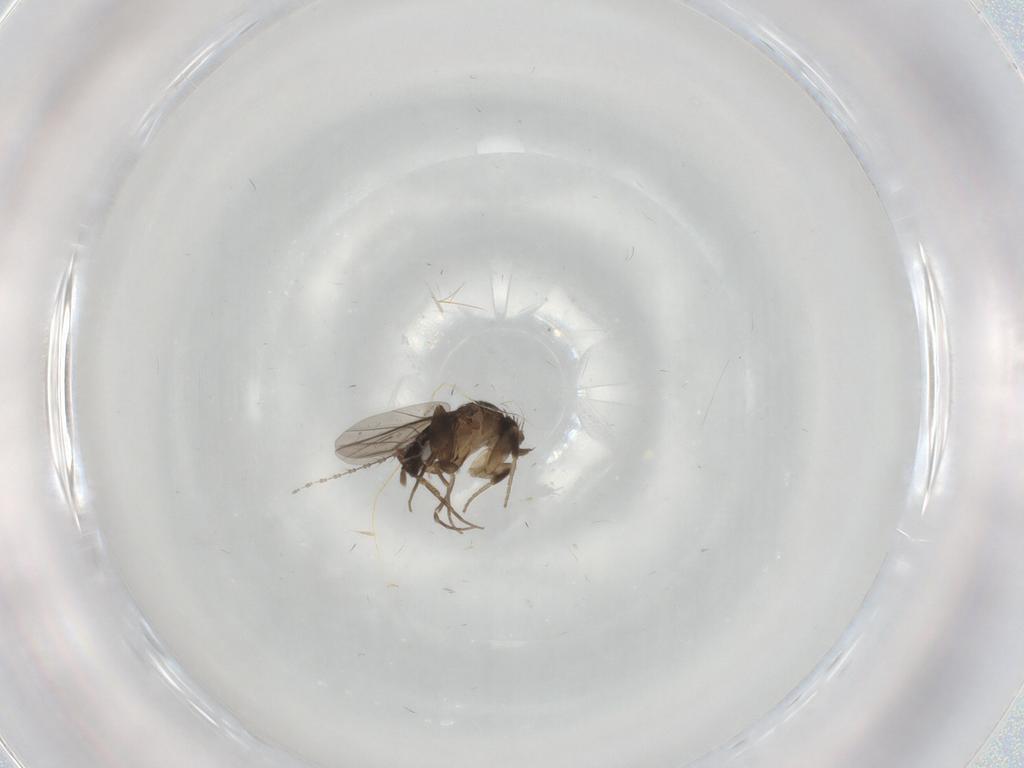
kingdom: Animalia
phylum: Arthropoda
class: Insecta
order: Diptera
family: Phoridae
